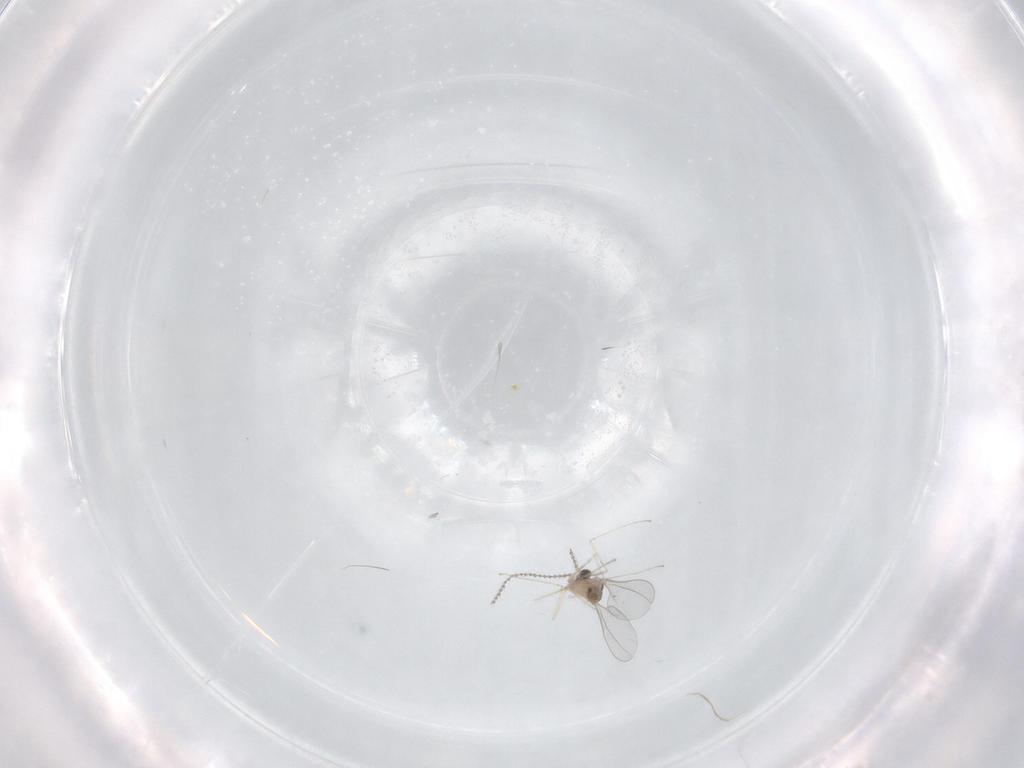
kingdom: Animalia
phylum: Arthropoda
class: Insecta
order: Diptera
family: Cecidomyiidae
